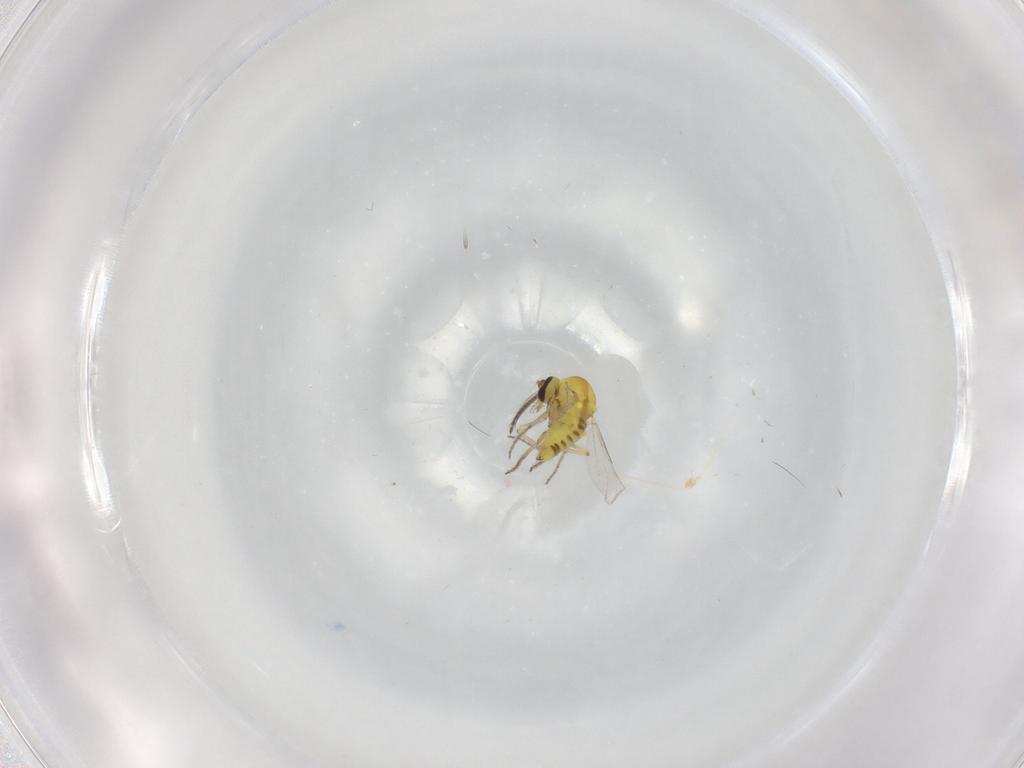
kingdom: Animalia
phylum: Arthropoda
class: Insecta
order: Diptera
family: Ceratopogonidae
